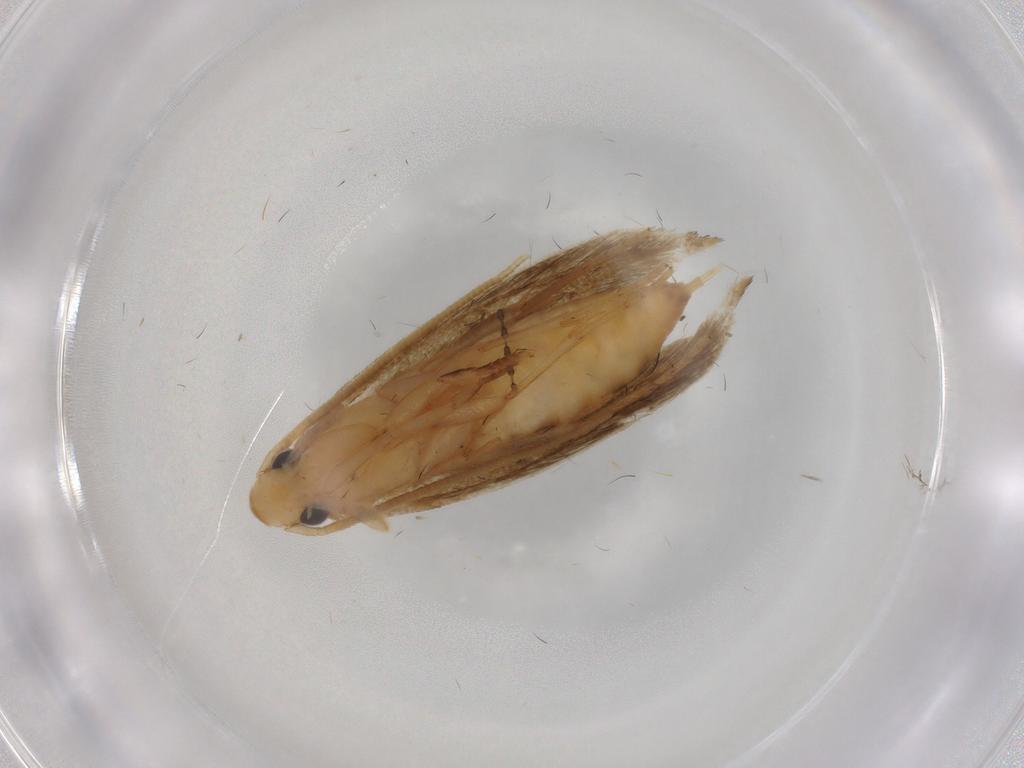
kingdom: Animalia
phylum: Arthropoda
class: Insecta
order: Lepidoptera
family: Tineidae
